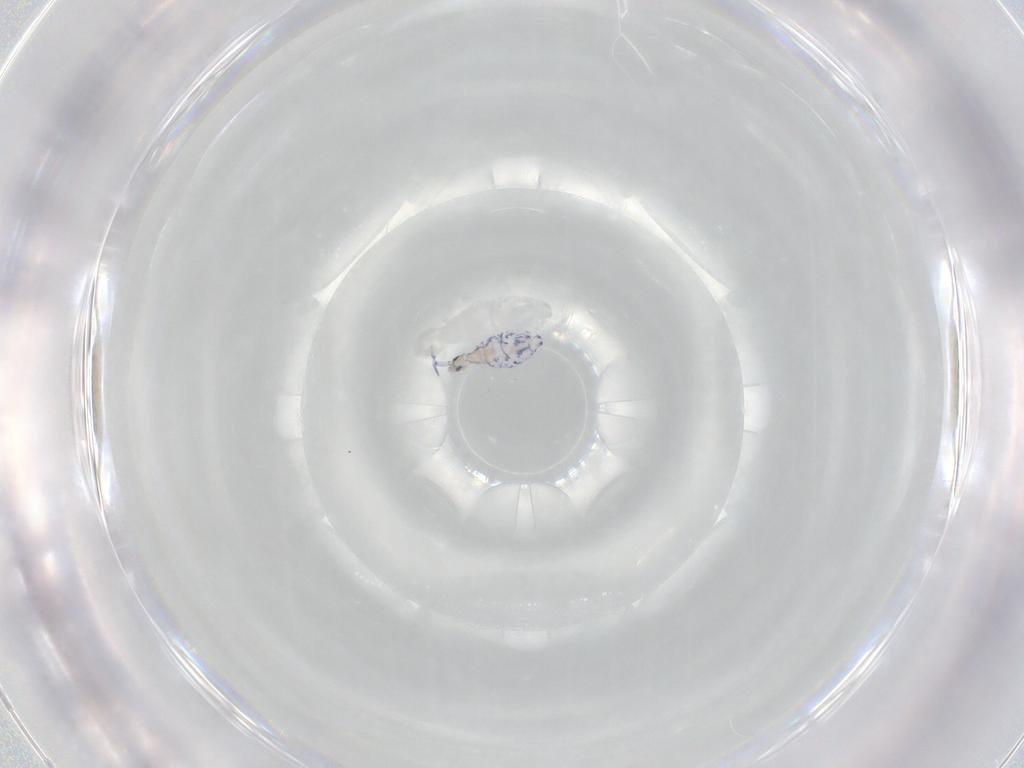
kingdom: Animalia
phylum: Arthropoda
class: Collembola
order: Entomobryomorpha
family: Entomobryidae
